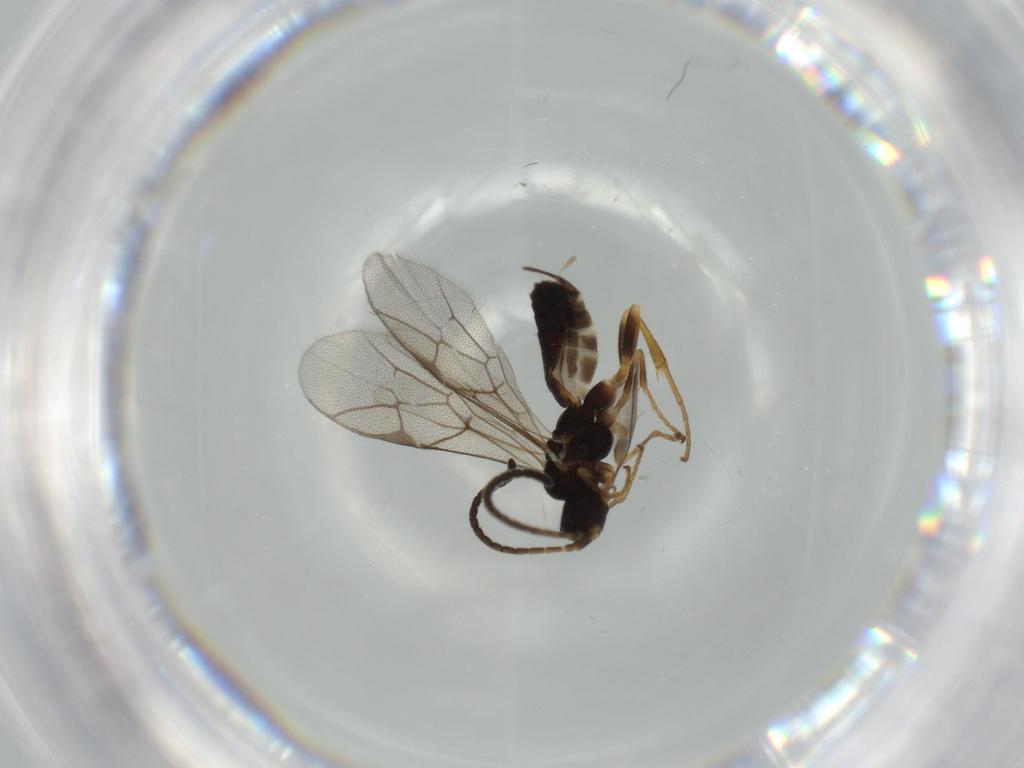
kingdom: Animalia
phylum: Arthropoda
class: Insecta
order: Hymenoptera
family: Ichneumonidae
